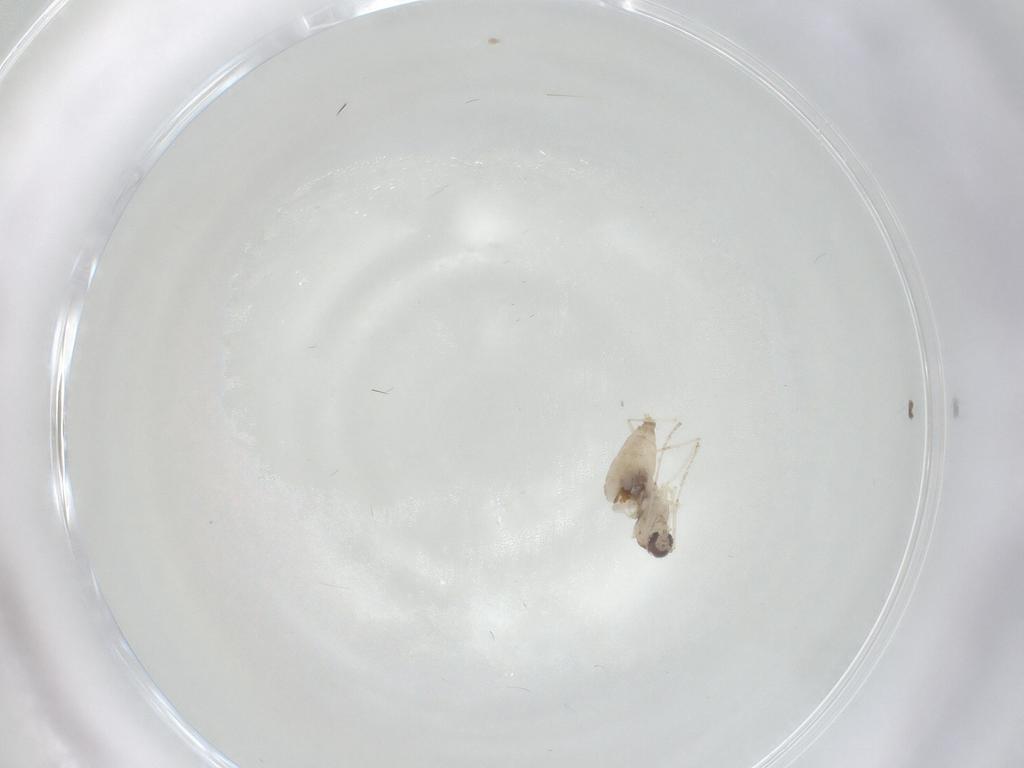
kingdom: Animalia
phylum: Arthropoda
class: Insecta
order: Diptera
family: Cecidomyiidae
